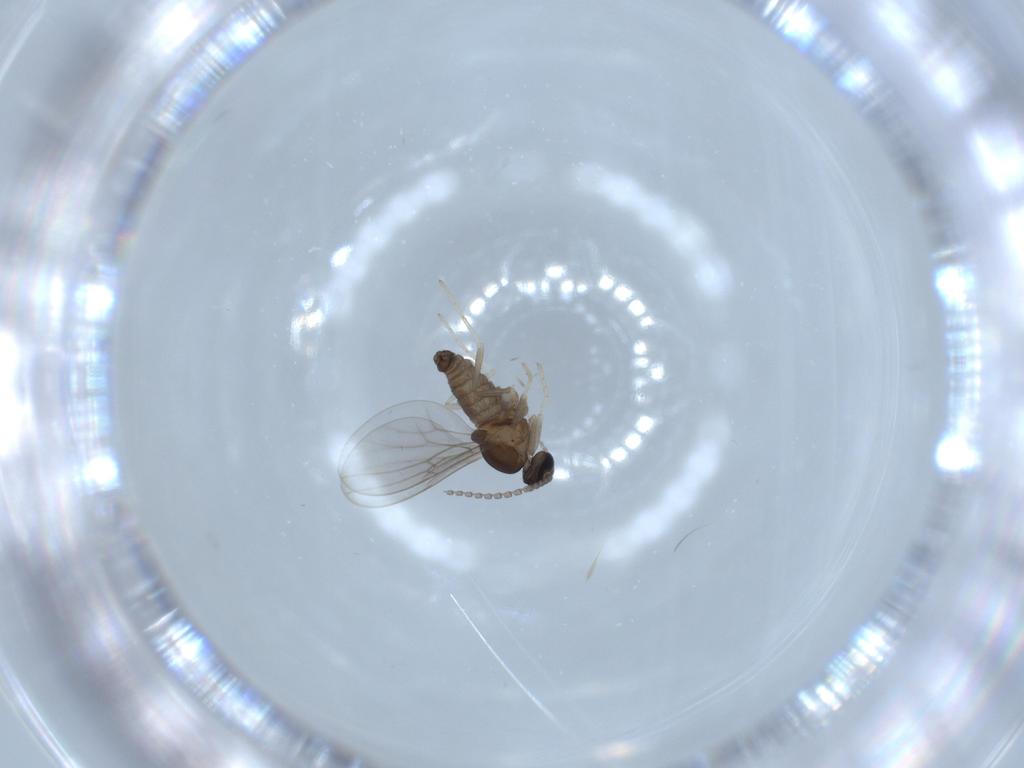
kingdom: Animalia
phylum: Arthropoda
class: Insecta
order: Diptera
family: Cecidomyiidae
